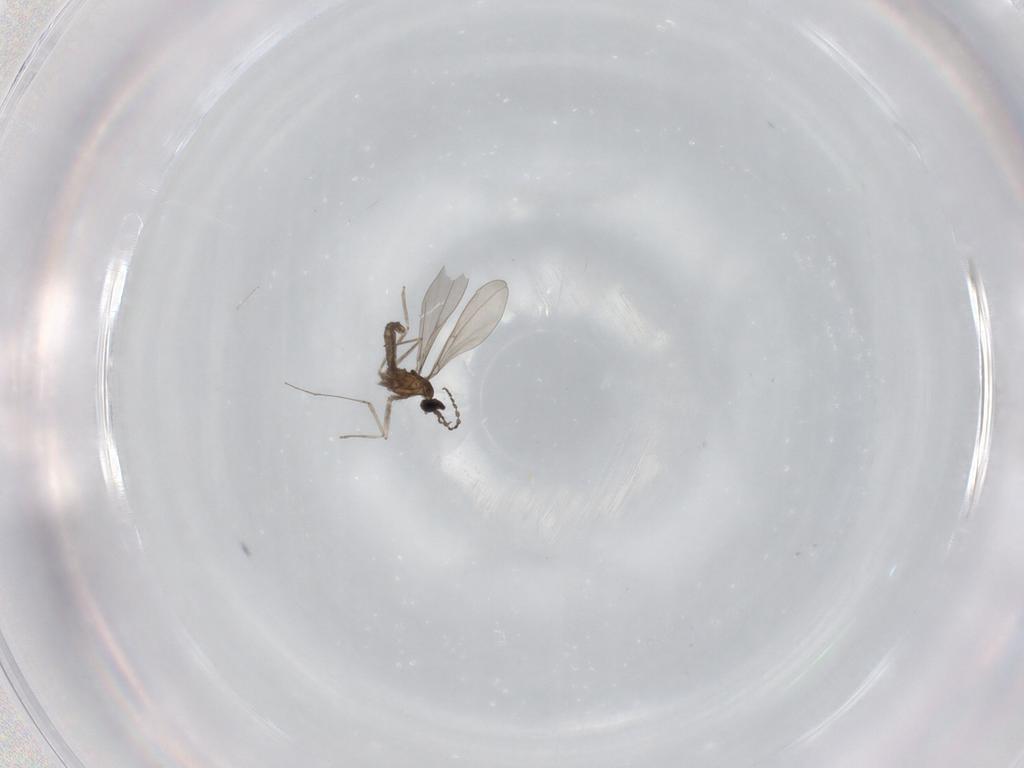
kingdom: Animalia
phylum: Arthropoda
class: Insecta
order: Diptera
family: Cecidomyiidae
